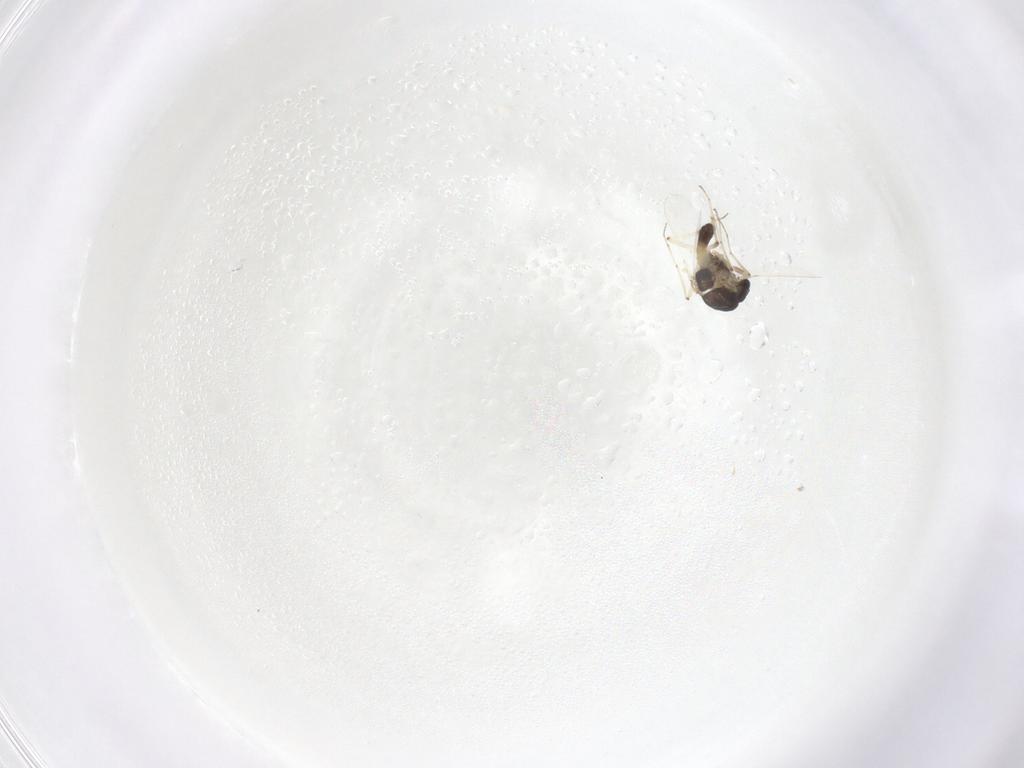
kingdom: Animalia
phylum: Arthropoda
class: Insecta
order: Diptera
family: Chironomidae
